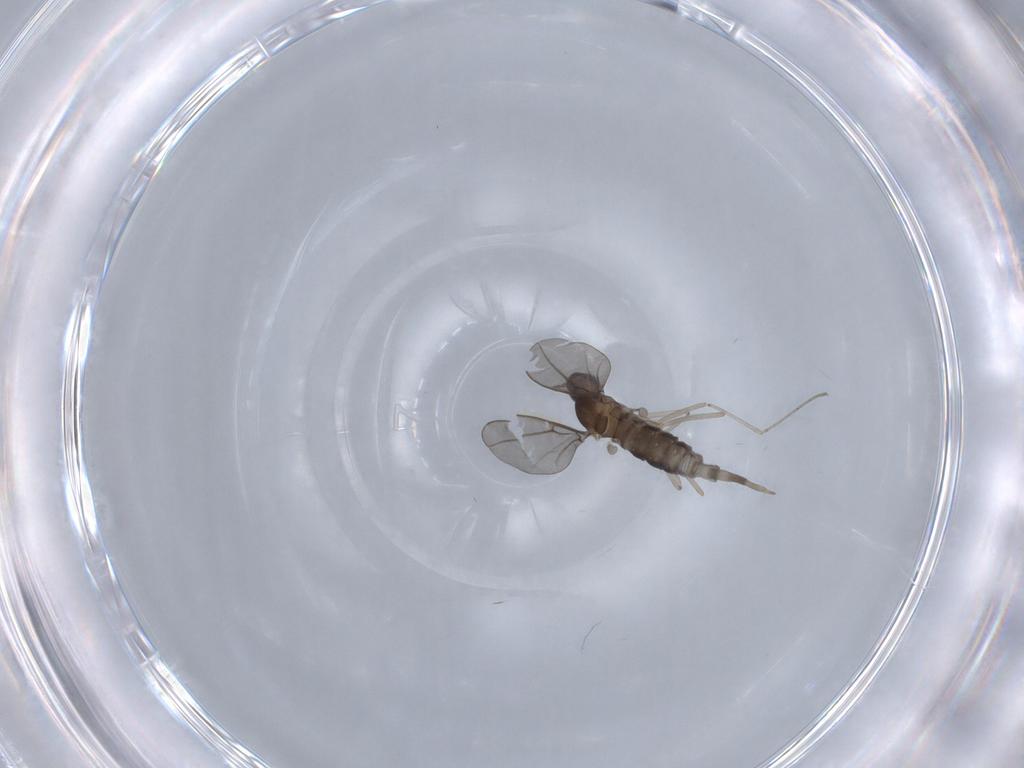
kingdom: Animalia
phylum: Arthropoda
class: Insecta
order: Diptera
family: Cecidomyiidae
